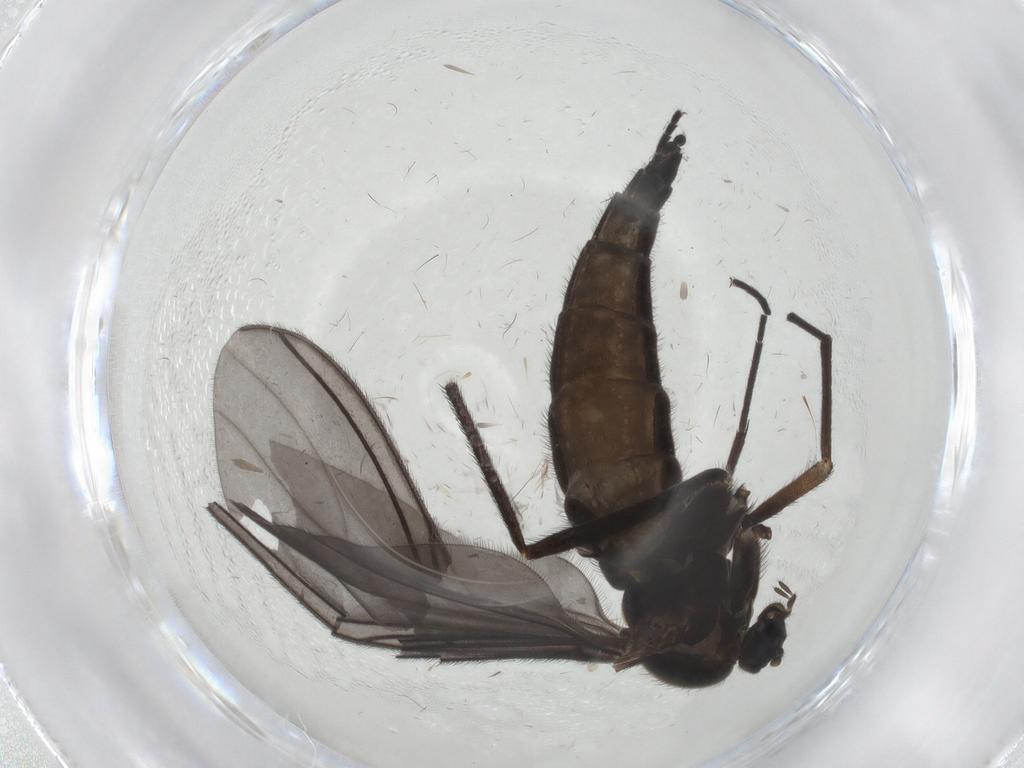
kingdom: Animalia
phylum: Arthropoda
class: Insecta
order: Diptera
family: Sciaridae
